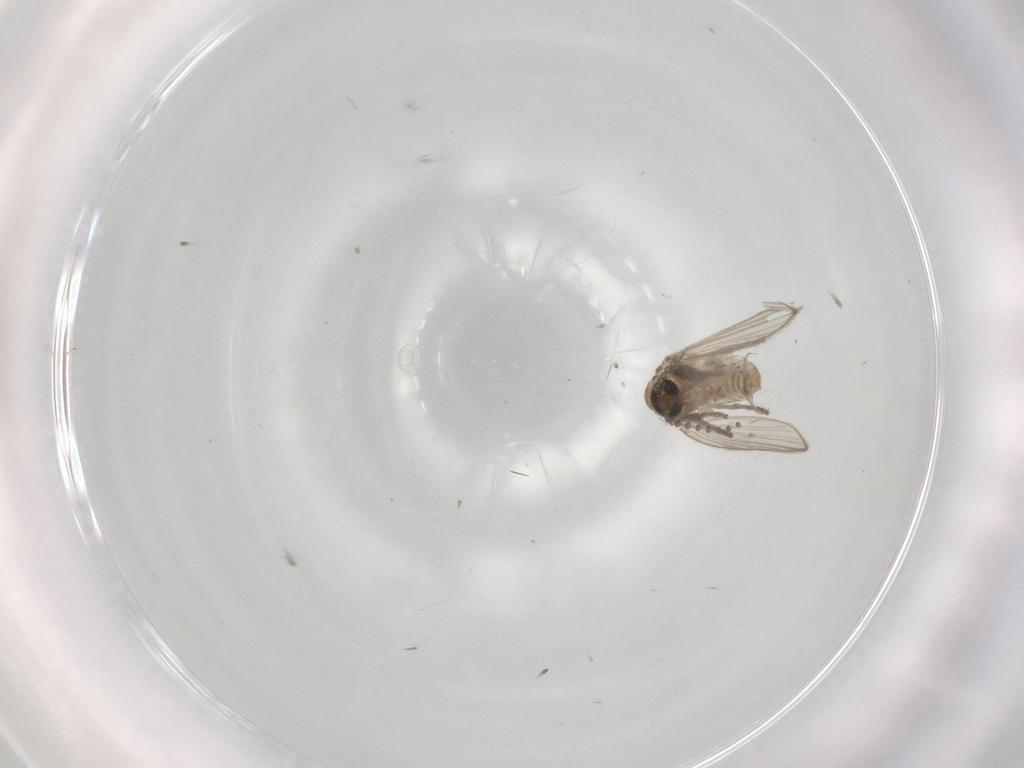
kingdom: Animalia
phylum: Arthropoda
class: Insecta
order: Diptera
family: Psychodidae
